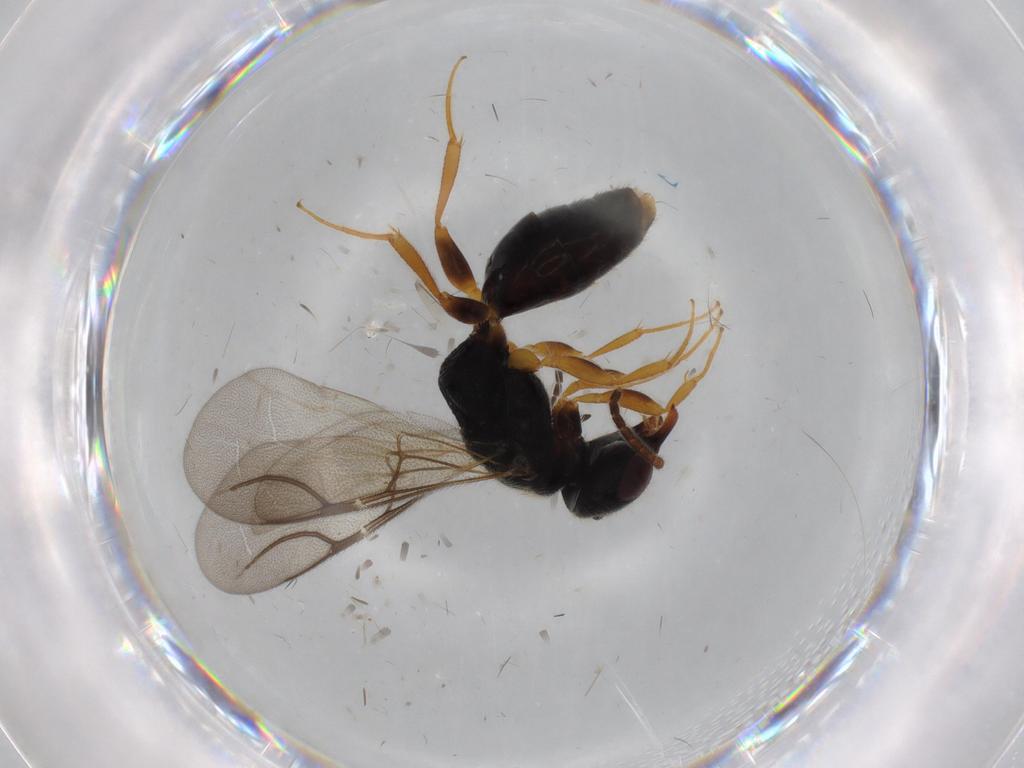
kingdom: Animalia
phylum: Arthropoda
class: Insecta
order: Hymenoptera
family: Bethylidae
